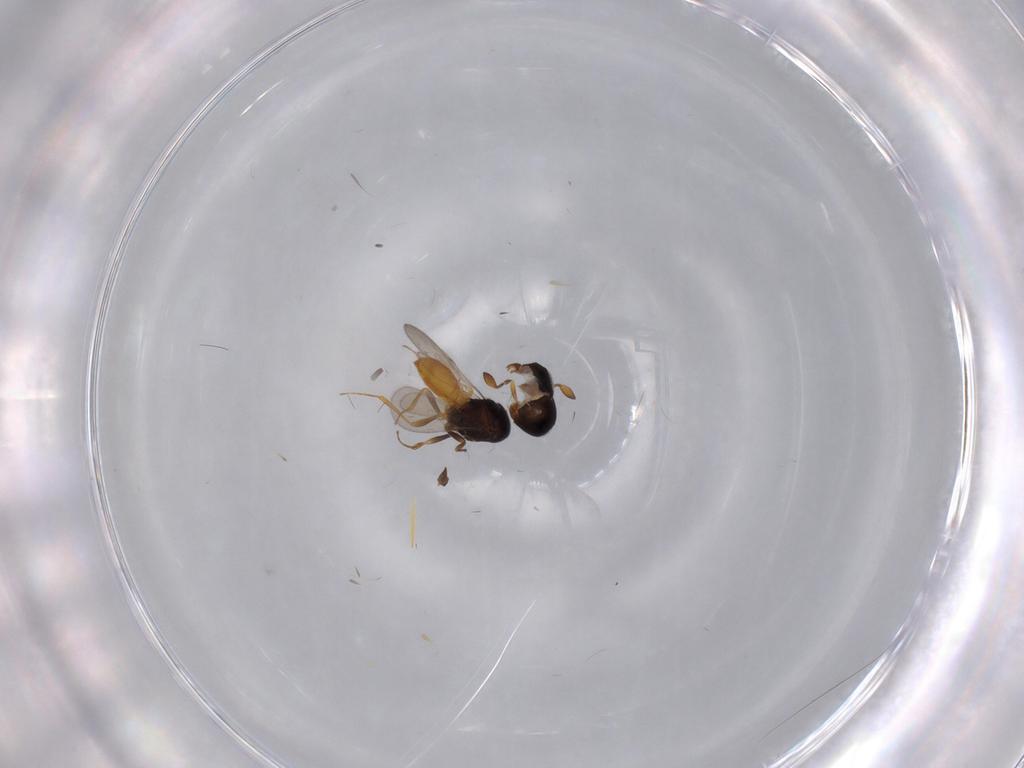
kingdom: Animalia
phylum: Arthropoda
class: Insecta
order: Hymenoptera
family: Scelionidae
